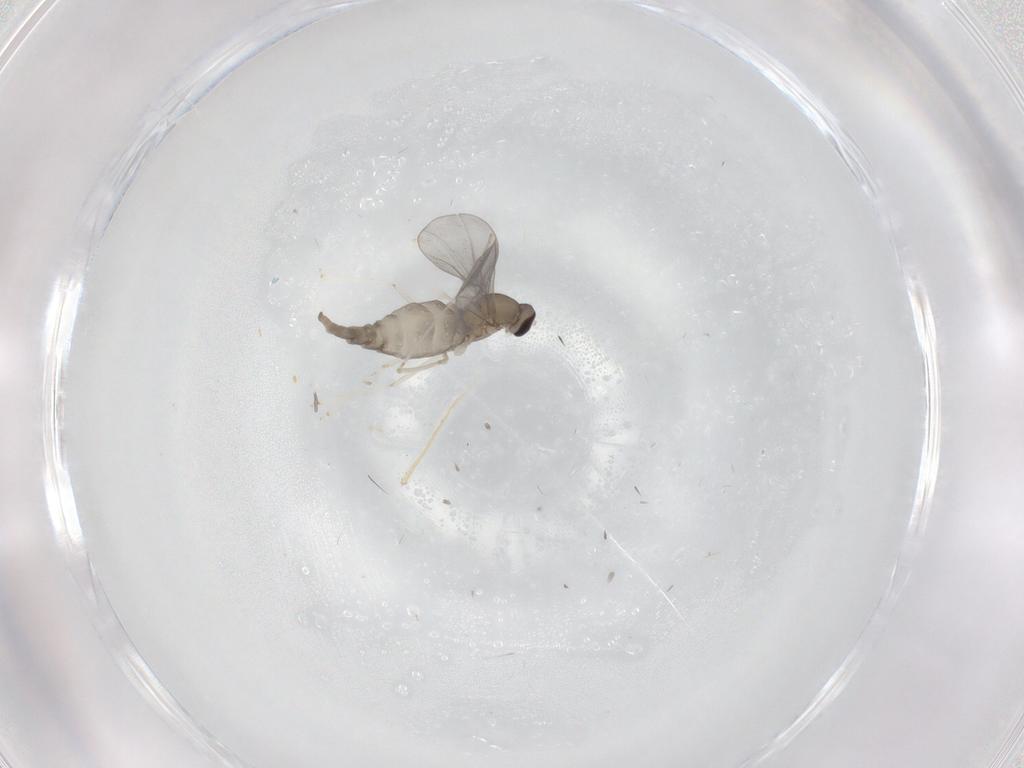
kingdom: Animalia
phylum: Arthropoda
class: Insecta
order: Diptera
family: Cecidomyiidae
